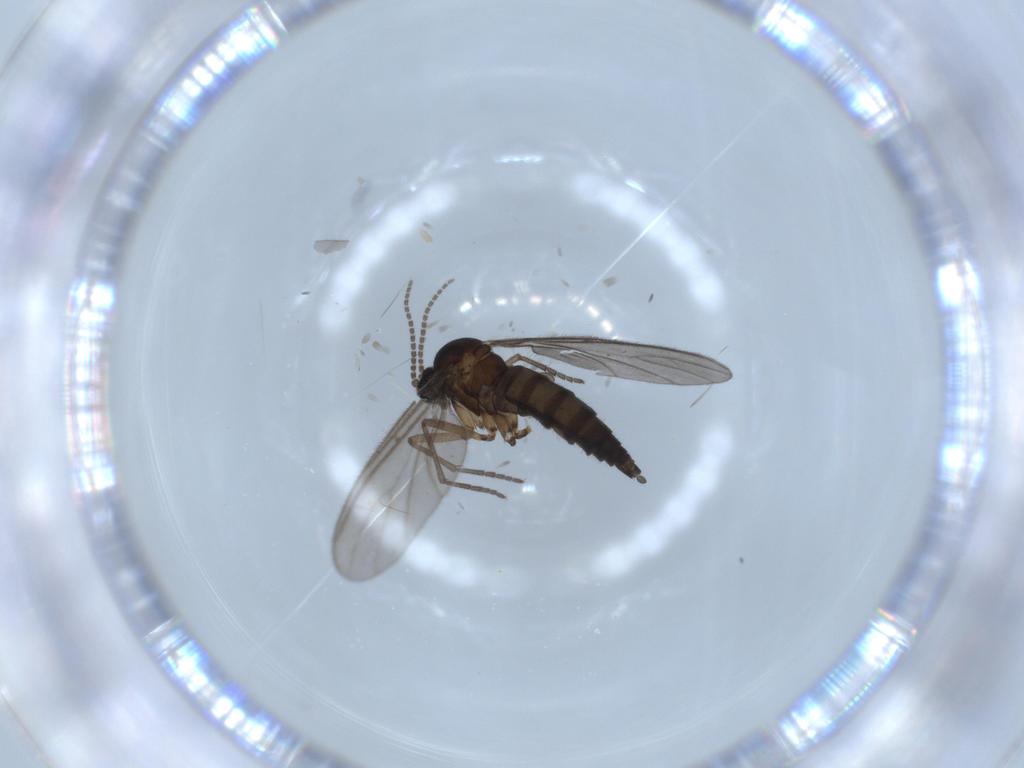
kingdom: Animalia
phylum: Arthropoda
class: Insecta
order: Diptera
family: Sciaridae
